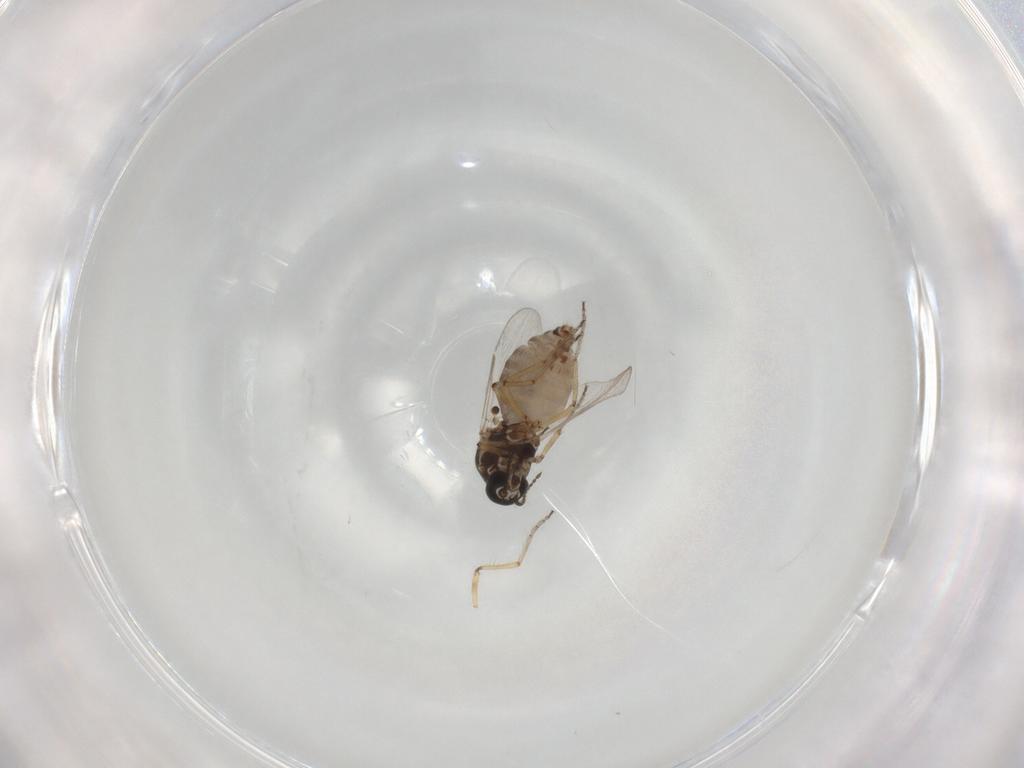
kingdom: Animalia
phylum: Arthropoda
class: Insecta
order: Diptera
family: Ceratopogonidae
